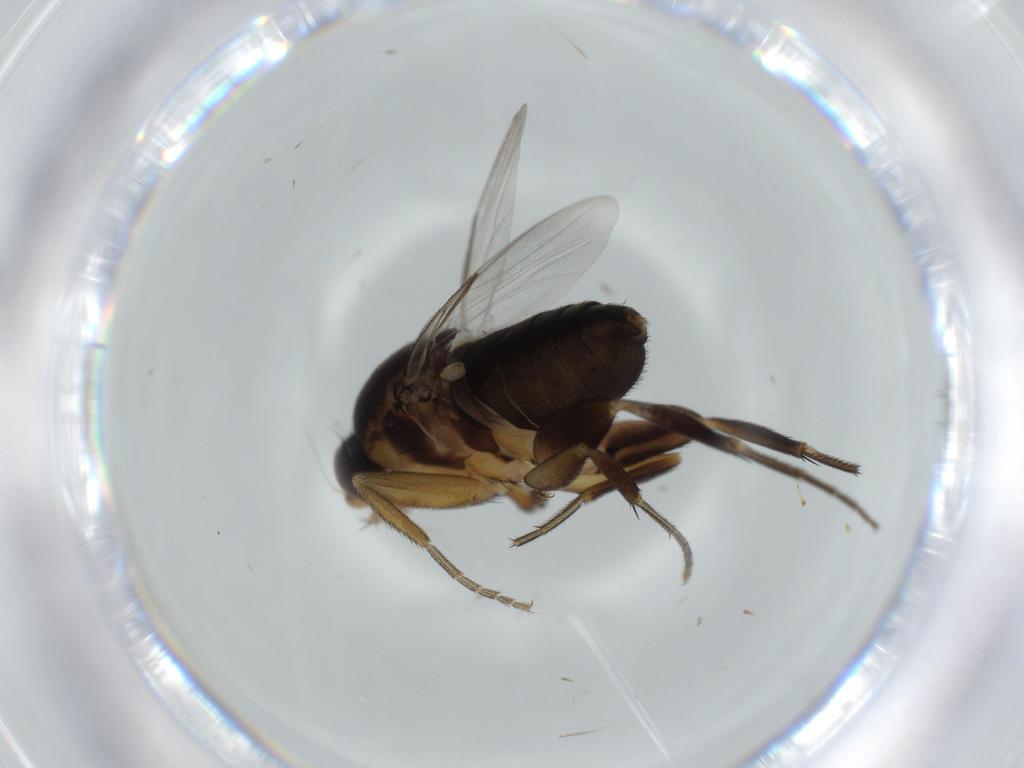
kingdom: Animalia
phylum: Arthropoda
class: Insecta
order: Diptera
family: Phoridae
